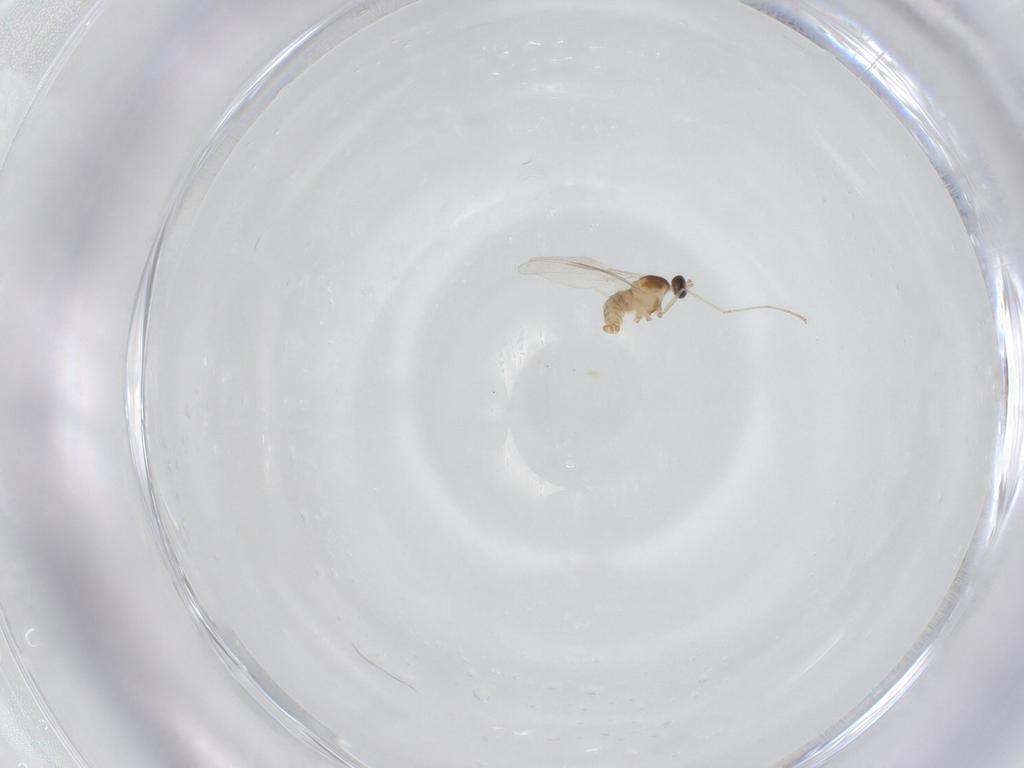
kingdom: Animalia
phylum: Arthropoda
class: Insecta
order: Diptera
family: Cecidomyiidae
